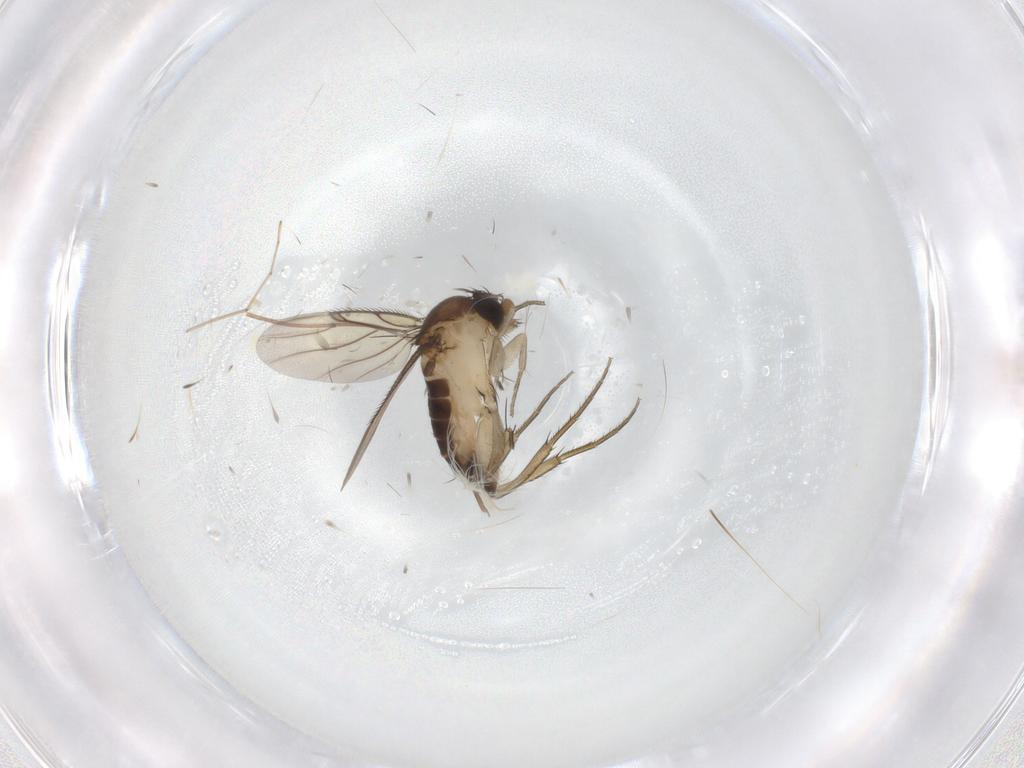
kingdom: Animalia
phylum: Arthropoda
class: Insecta
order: Diptera
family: Phoridae
